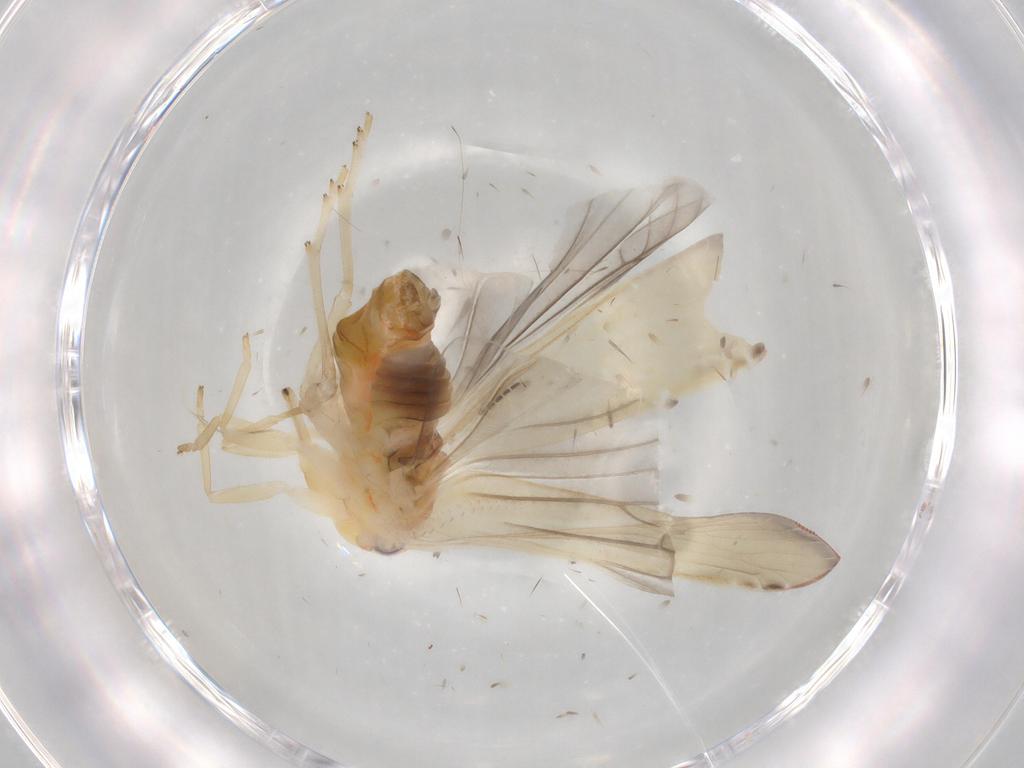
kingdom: Animalia
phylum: Arthropoda
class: Insecta
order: Hemiptera
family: Derbidae
